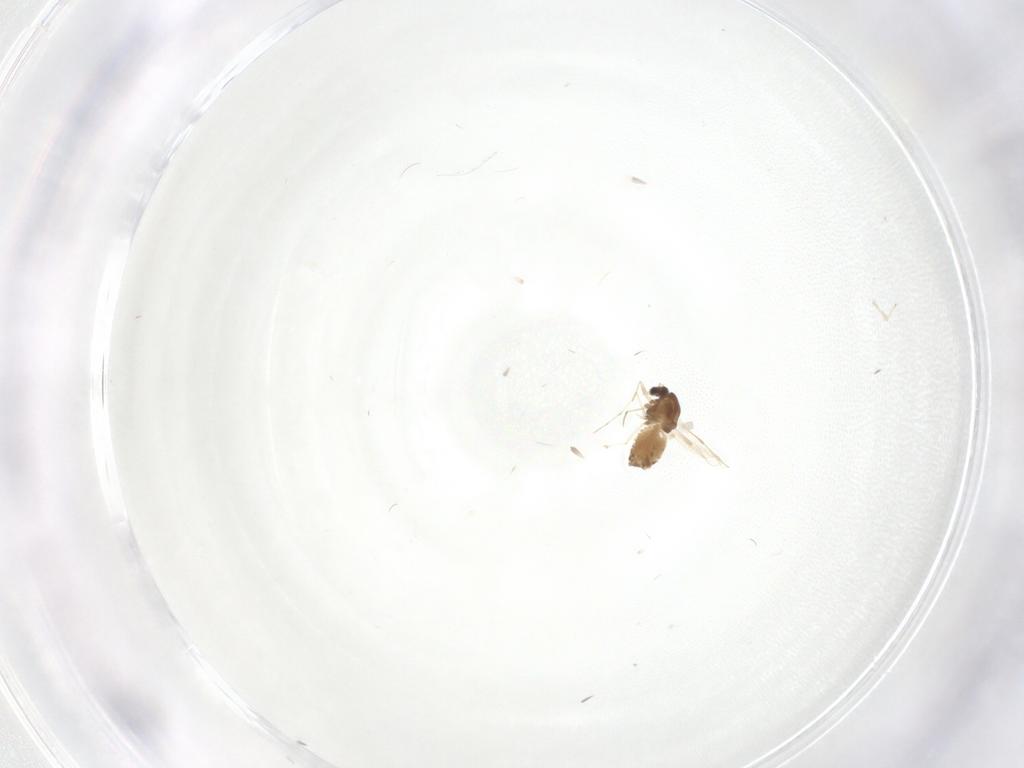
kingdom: Animalia
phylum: Arthropoda
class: Insecta
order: Diptera
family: Chironomidae
